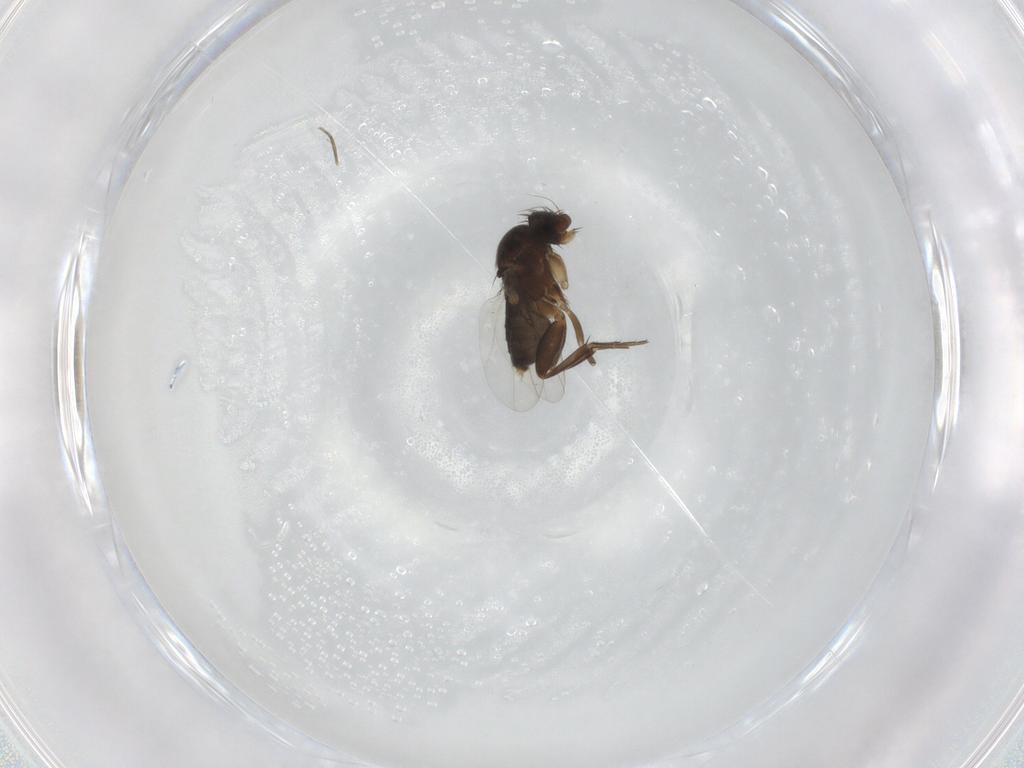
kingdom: Animalia
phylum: Arthropoda
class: Insecta
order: Diptera
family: Phoridae
